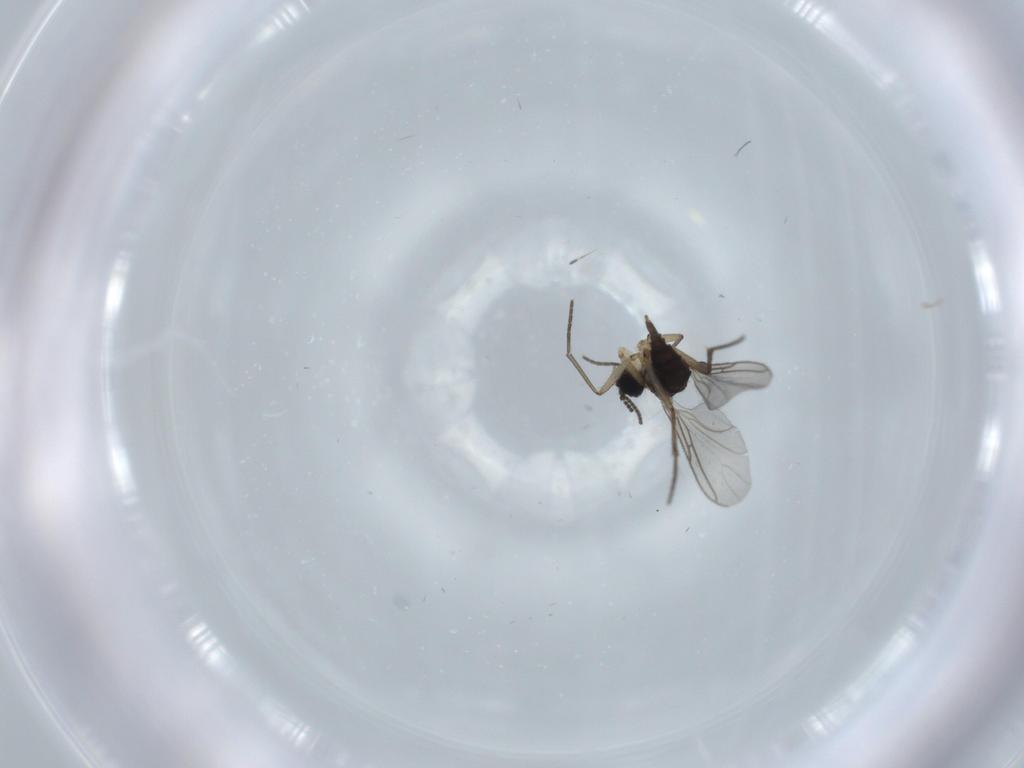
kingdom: Animalia
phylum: Arthropoda
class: Insecta
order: Diptera
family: Sciaridae
